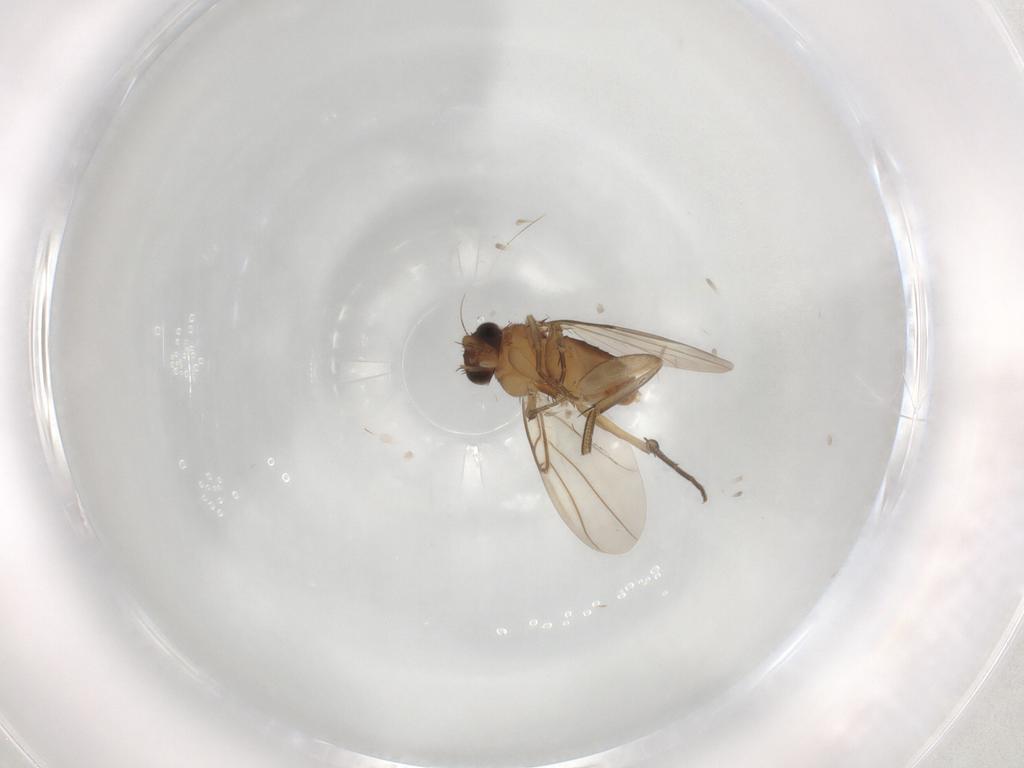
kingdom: Animalia
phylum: Arthropoda
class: Insecta
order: Diptera
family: Phoridae
